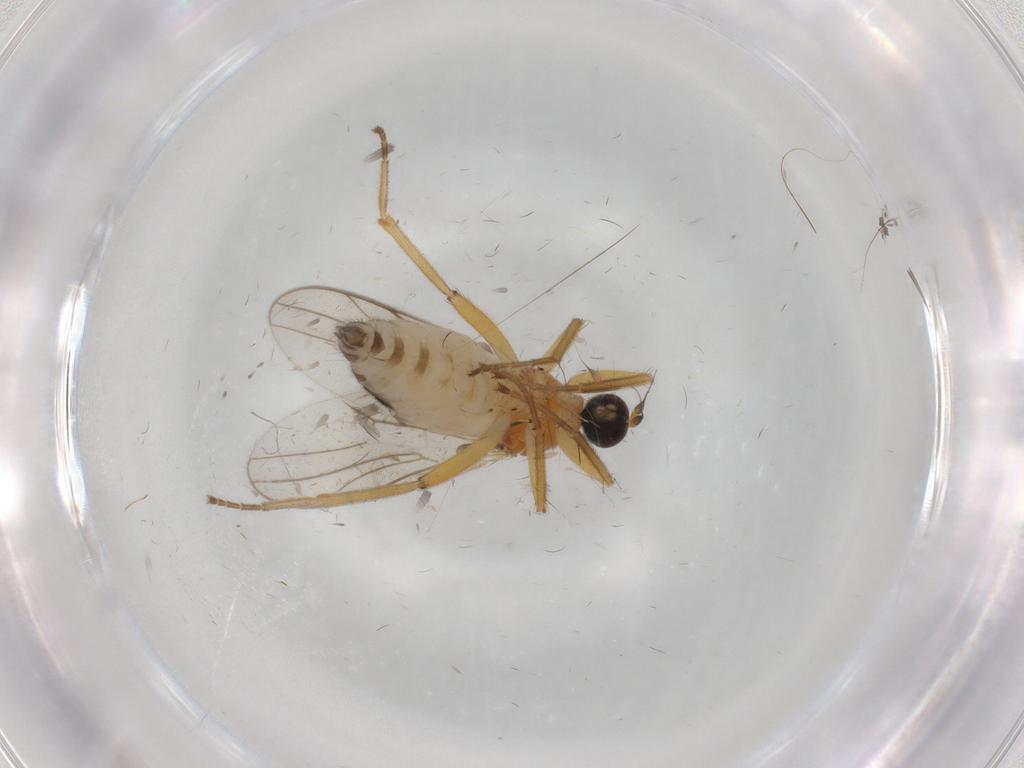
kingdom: Animalia
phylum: Arthropoda
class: Insecta
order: Diptera
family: Hybotidae
